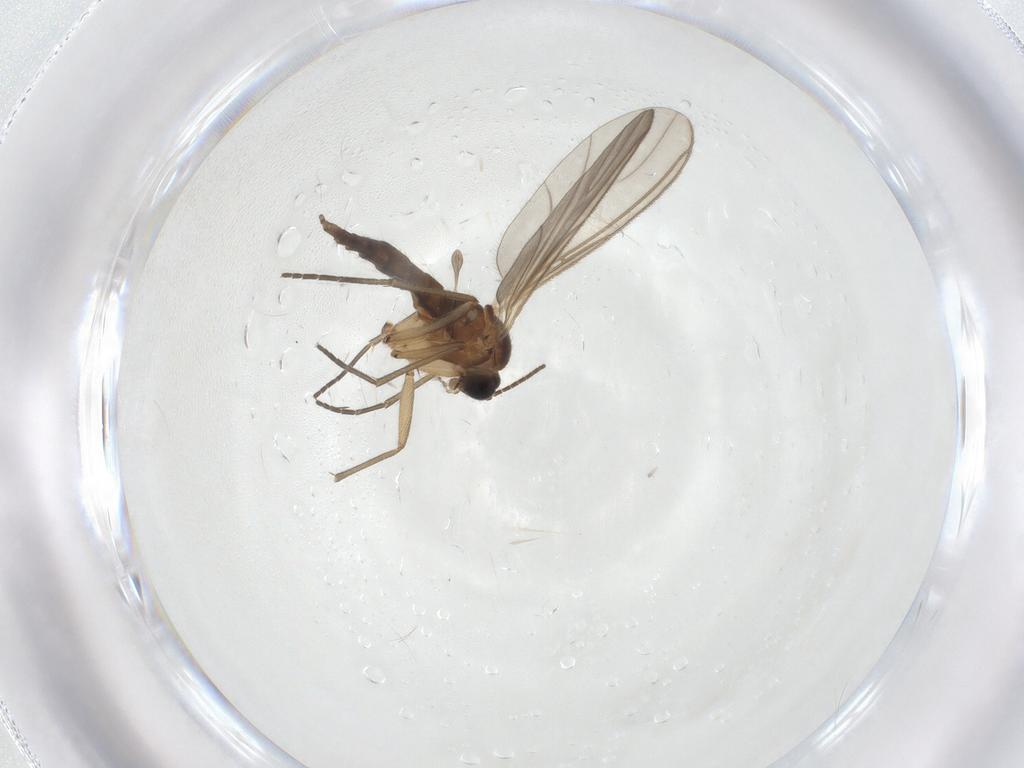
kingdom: Animalia
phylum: Arthropoda
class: Insecta
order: Diptera
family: Sciaridae
